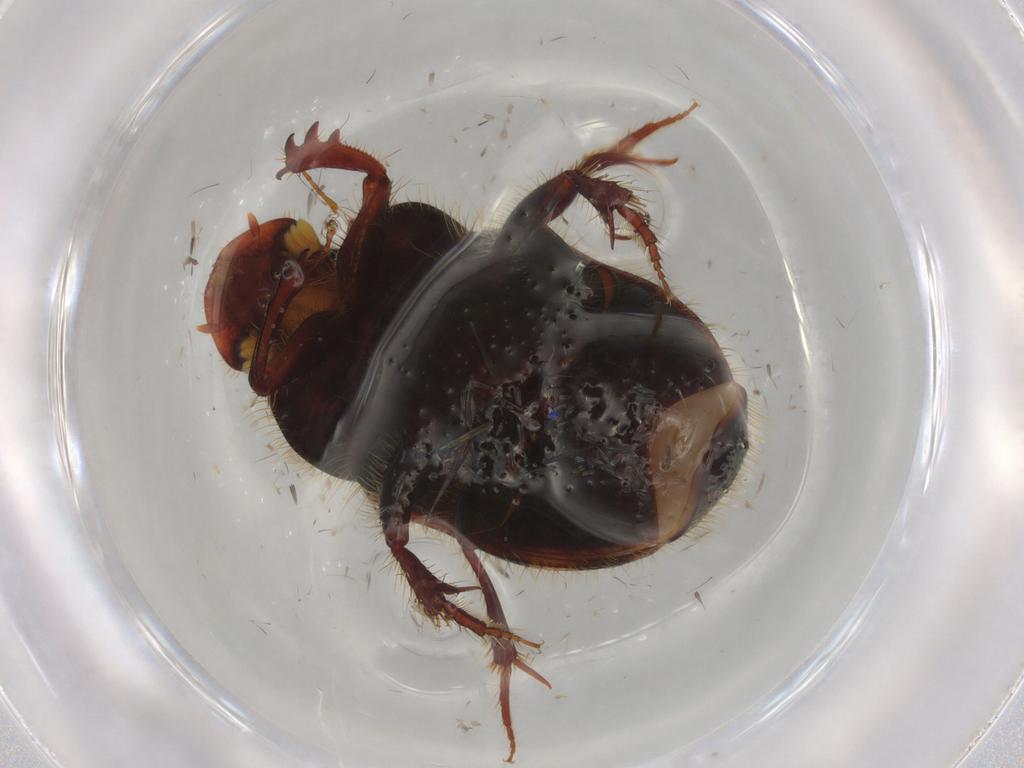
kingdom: Animalia
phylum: Arthropoda
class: Insecta
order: Coleoptera
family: Scarabaeidae
